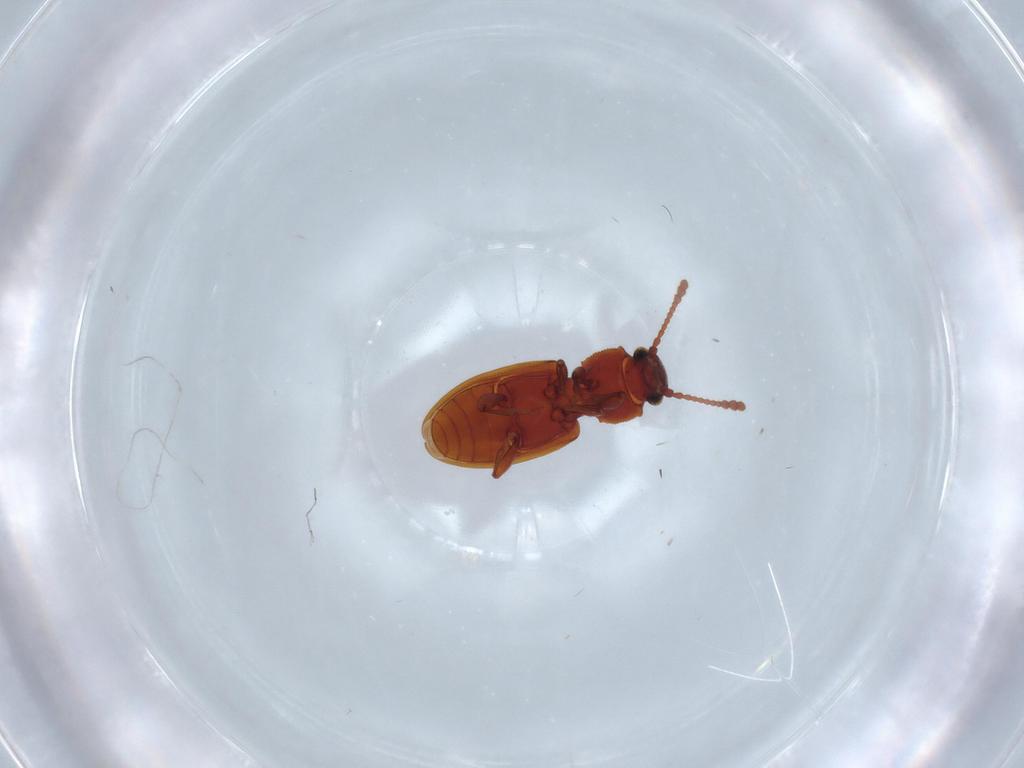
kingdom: Animalia
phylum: Arthropoda
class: Insecta
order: Coleoptera
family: Silvanidae
